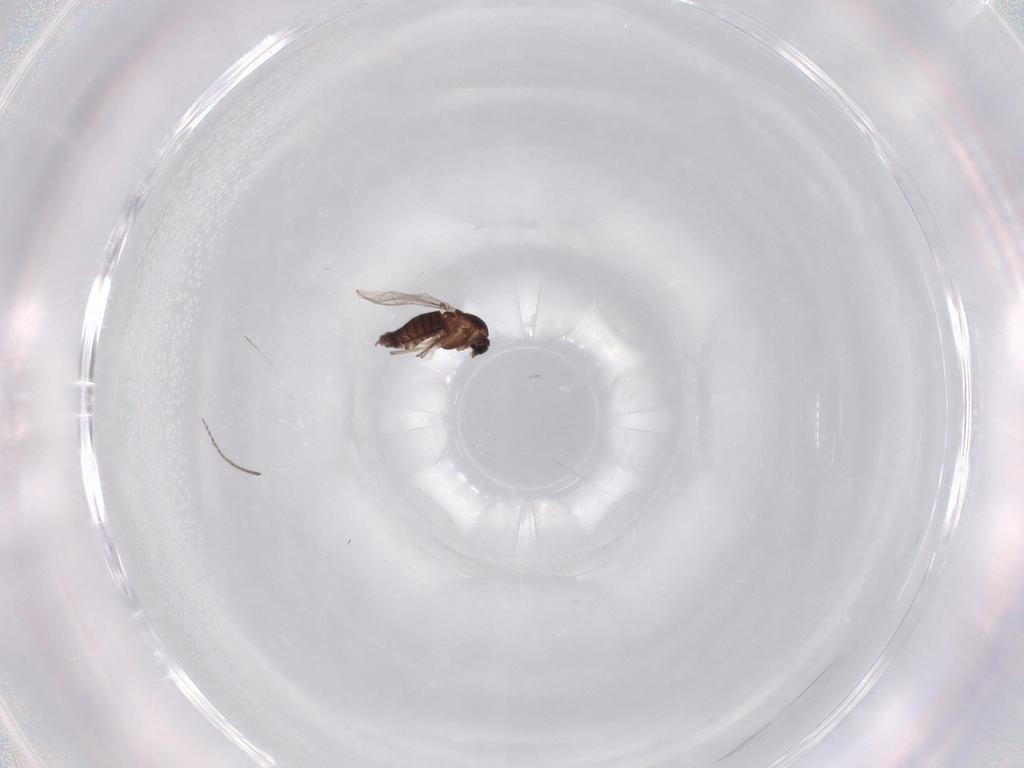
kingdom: Animalia
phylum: Arthropoda
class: Insecta
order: Diptera
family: Chironomidae
